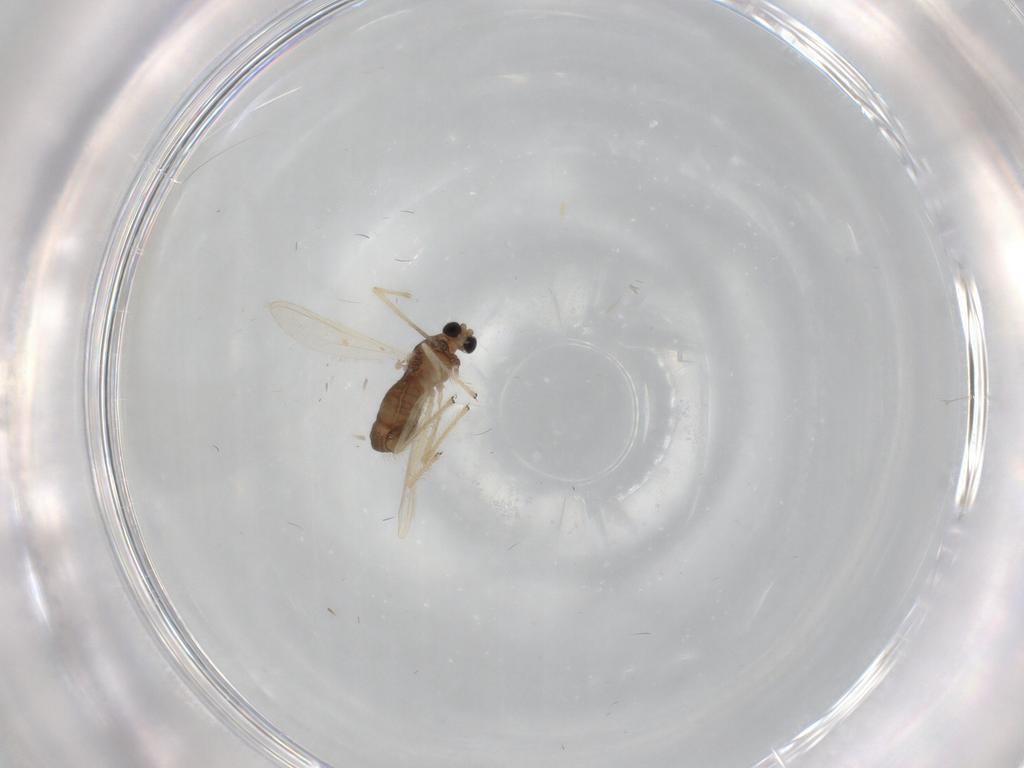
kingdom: Animalia
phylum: Arthropoda
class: Insecta
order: Diptera
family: Chironomidae
